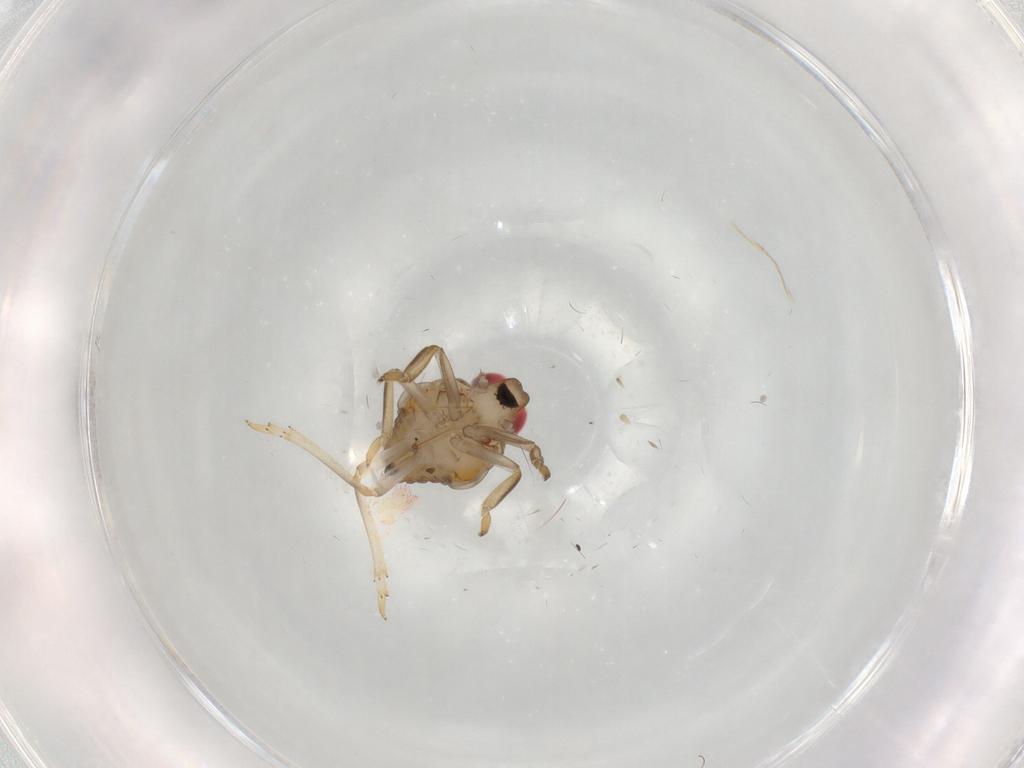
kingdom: Animalia
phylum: Arthropoda
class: Insecta
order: Hemiptera
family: Issidae
